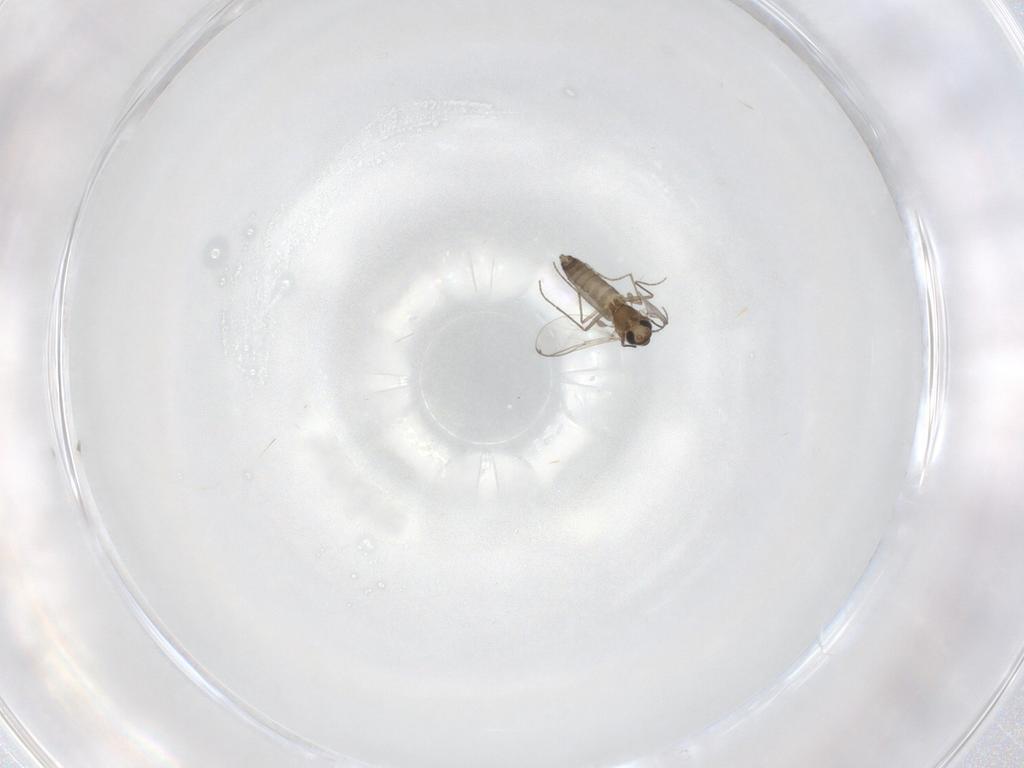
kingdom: Animalia
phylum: Arthropoda
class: Insecta
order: Diptera
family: Chironomidae
